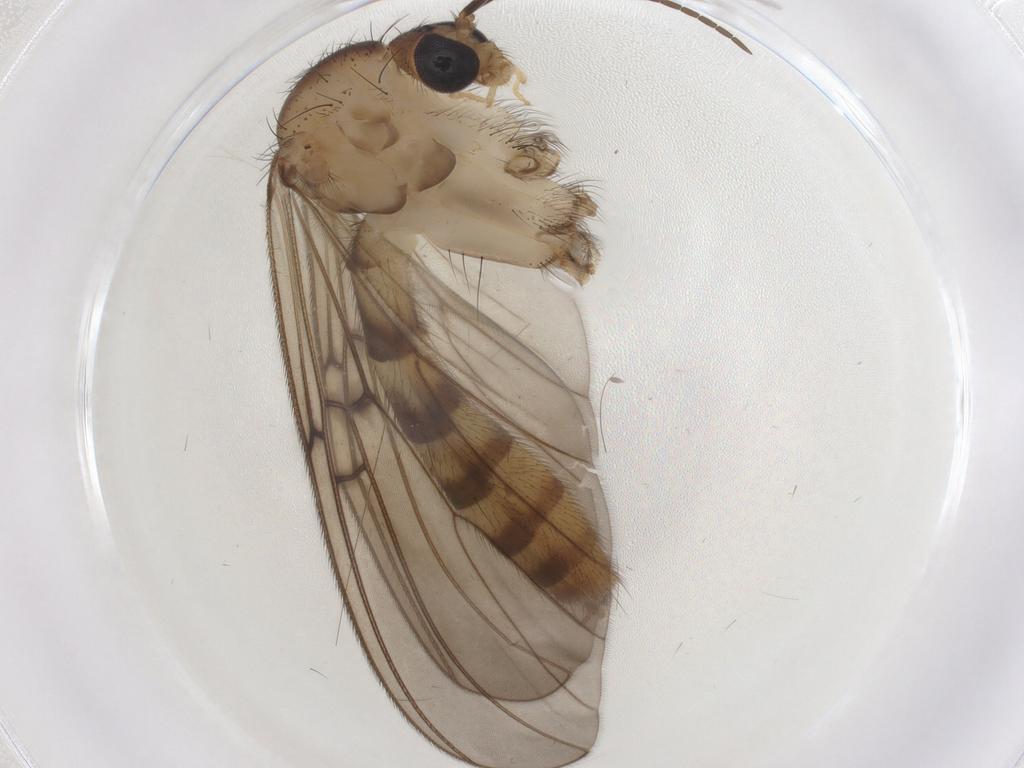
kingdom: Animalia
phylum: Arthropoda
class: Insecta
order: Diptera
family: Mycetophilidae
